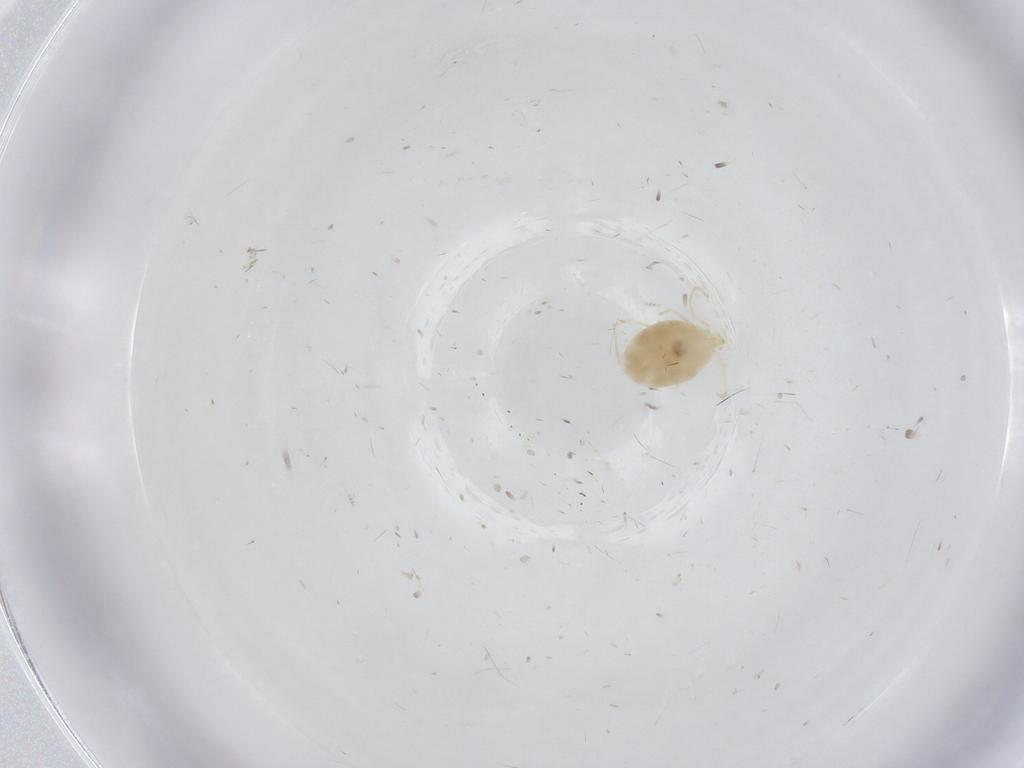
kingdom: Animalia
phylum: Arthropoda
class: Arachnida
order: Trombidiformes
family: Erythraeidae
